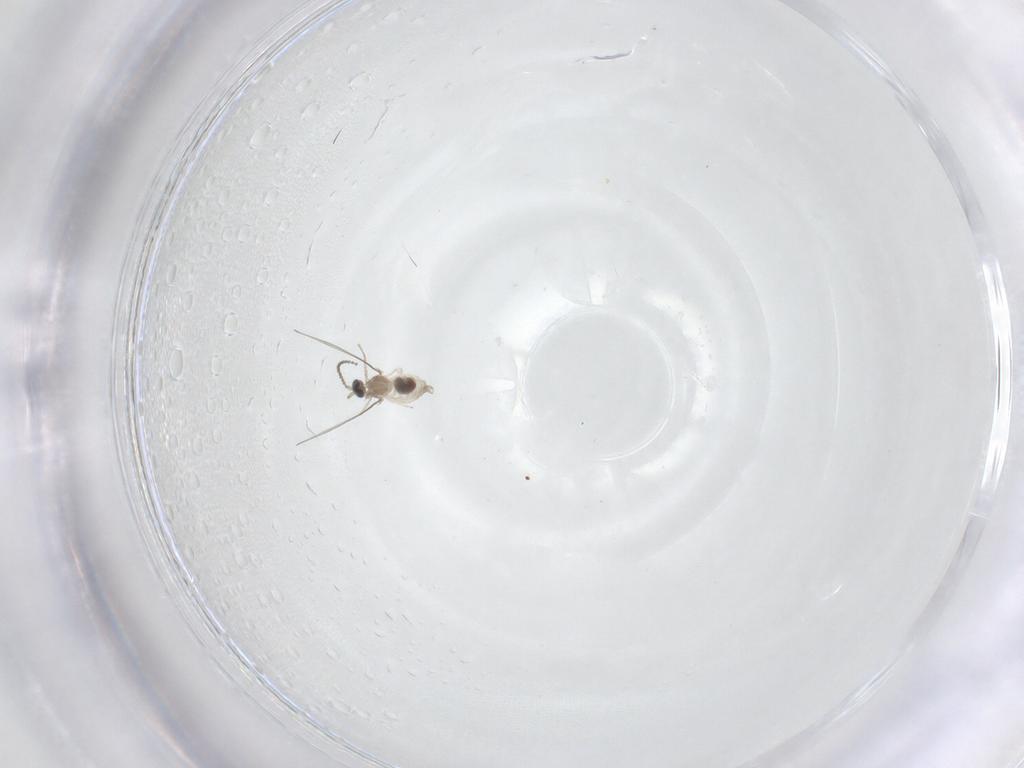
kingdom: Animalia
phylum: Arthropoda
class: Insecta
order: Diptera
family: Cecidomyiidae
